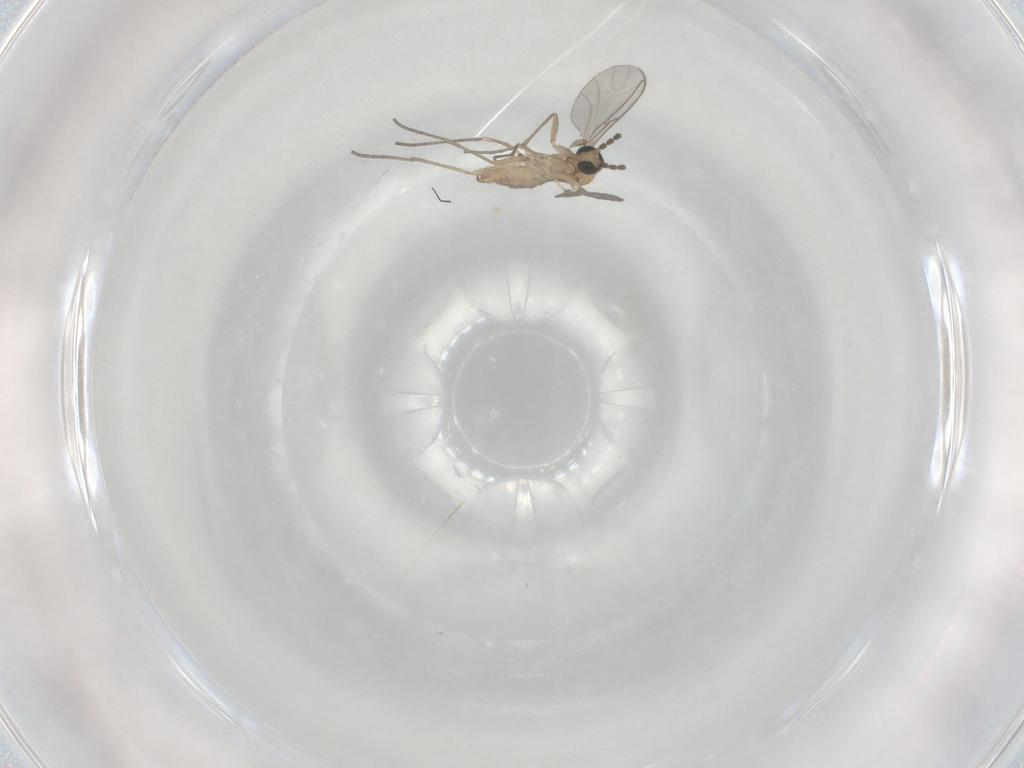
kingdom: Animalia
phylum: Arthropoda
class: Insecta
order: Diptera
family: Cecidomyiidae
